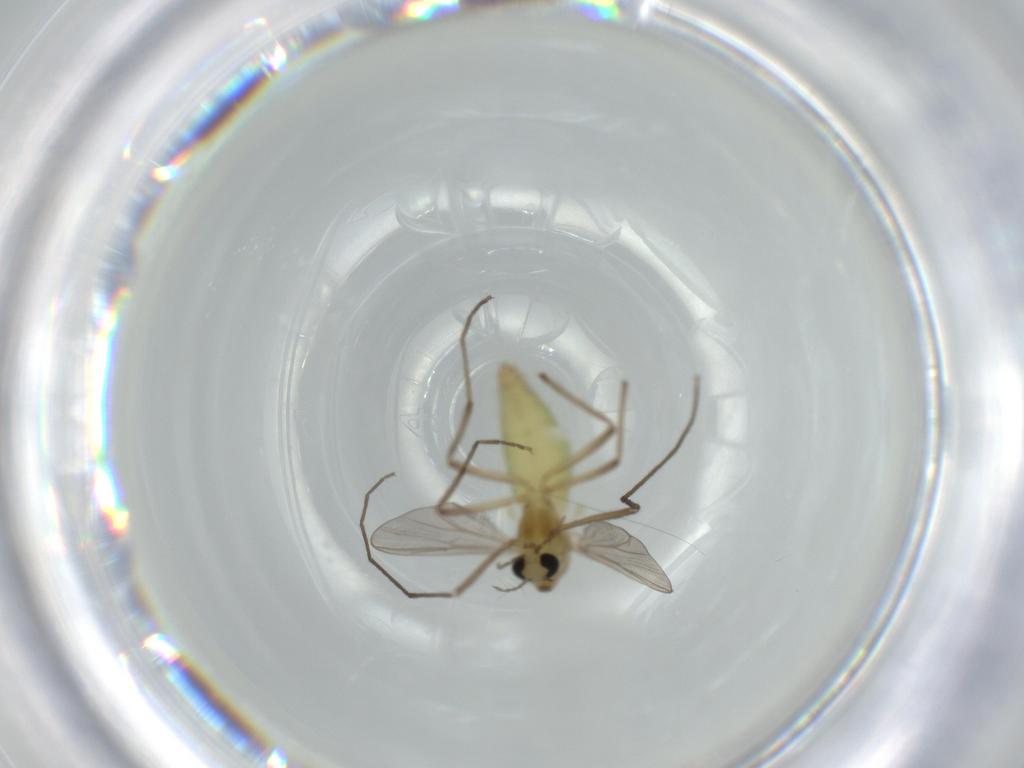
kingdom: Animalia
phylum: Arthropoda
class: Insecta
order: Diptera
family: Chironomidae
